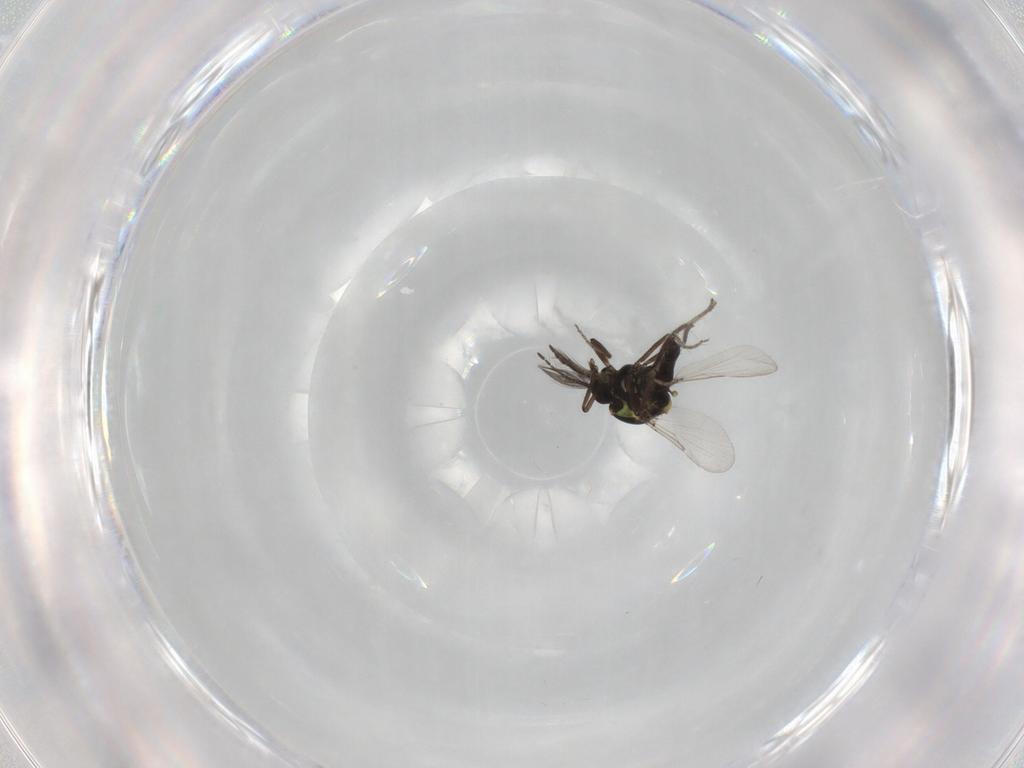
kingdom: Animalia
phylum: Arthropoda
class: Insecta
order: Diptera
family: Ceratopogonidae
